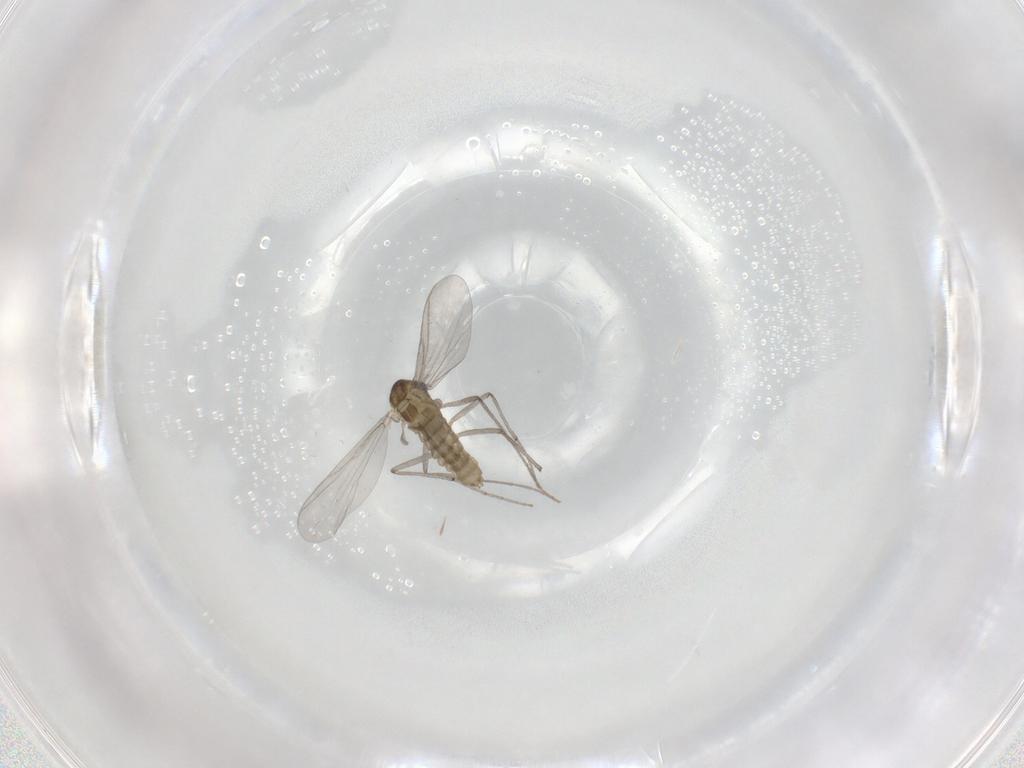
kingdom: Animalia
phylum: Arthropoda
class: Insecta
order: Diptera
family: Chironomidae
